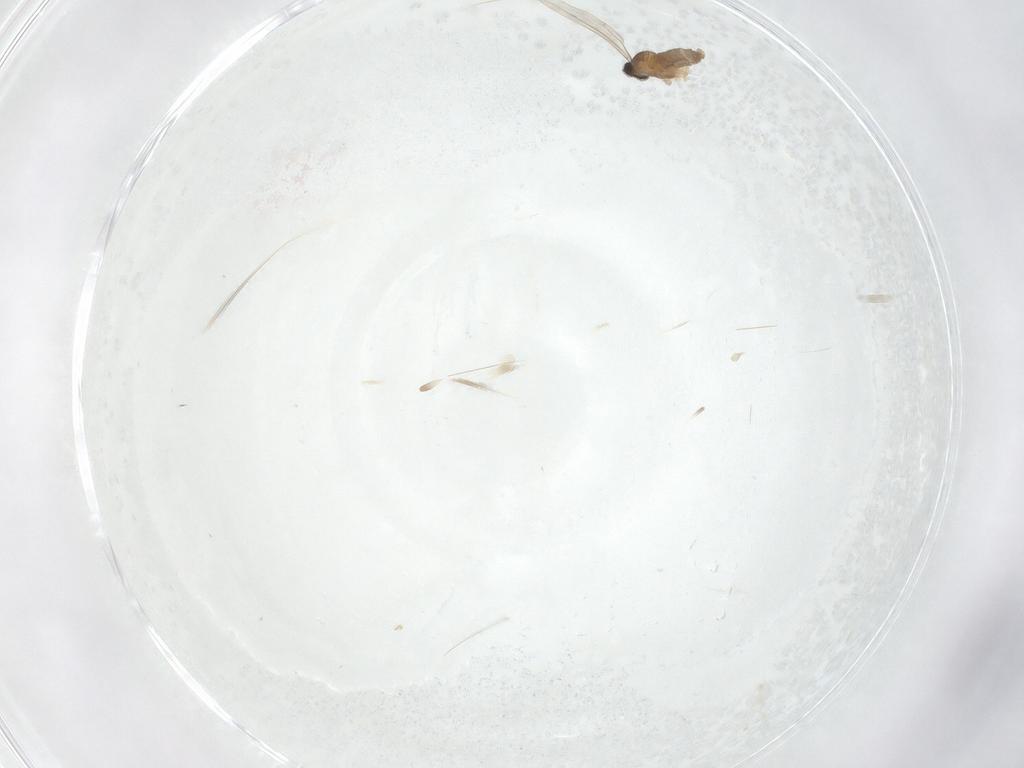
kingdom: Animalia
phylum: Arthropoda
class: Insecta
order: Diptera
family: Cecidomyiidae
